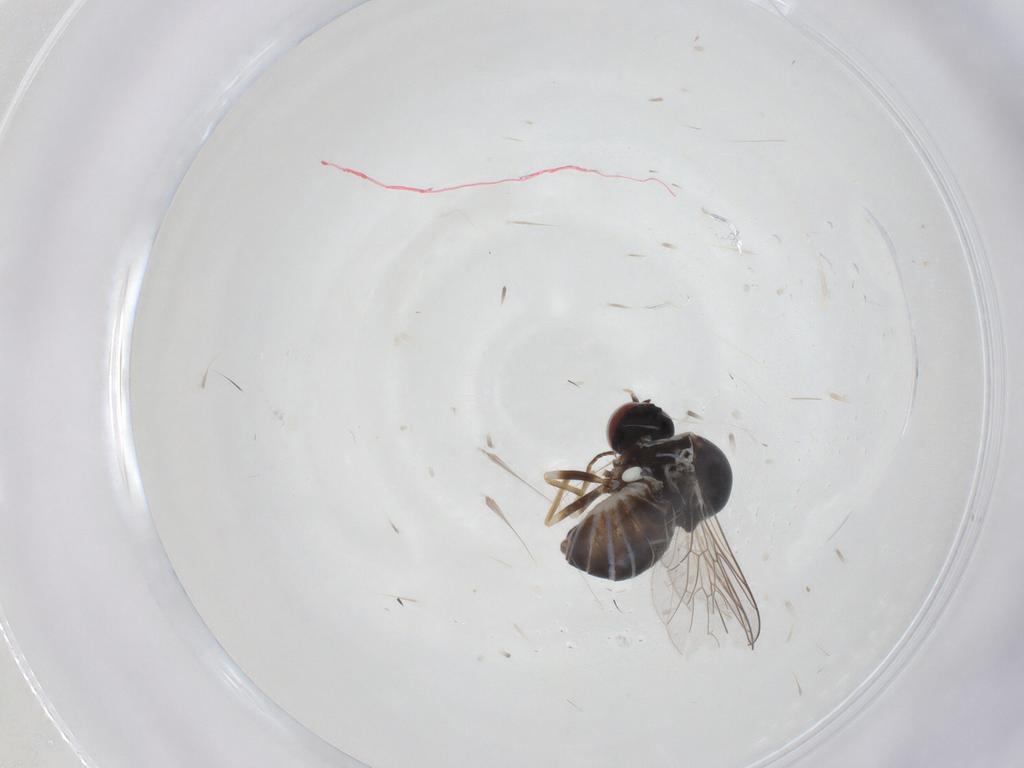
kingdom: Animalia
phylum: Arthropoda
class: Insecta
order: Diptera
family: Bombyliidae
